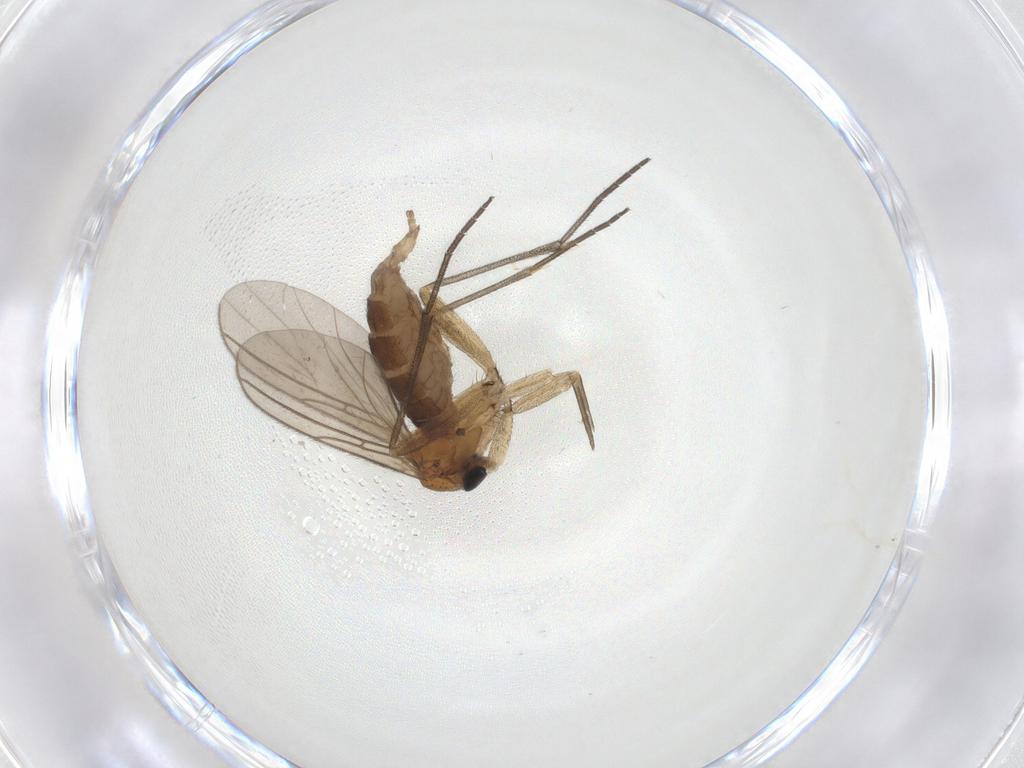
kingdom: Animalia
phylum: Arthropoda
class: Insecta
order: Diptera
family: Sciaridae
